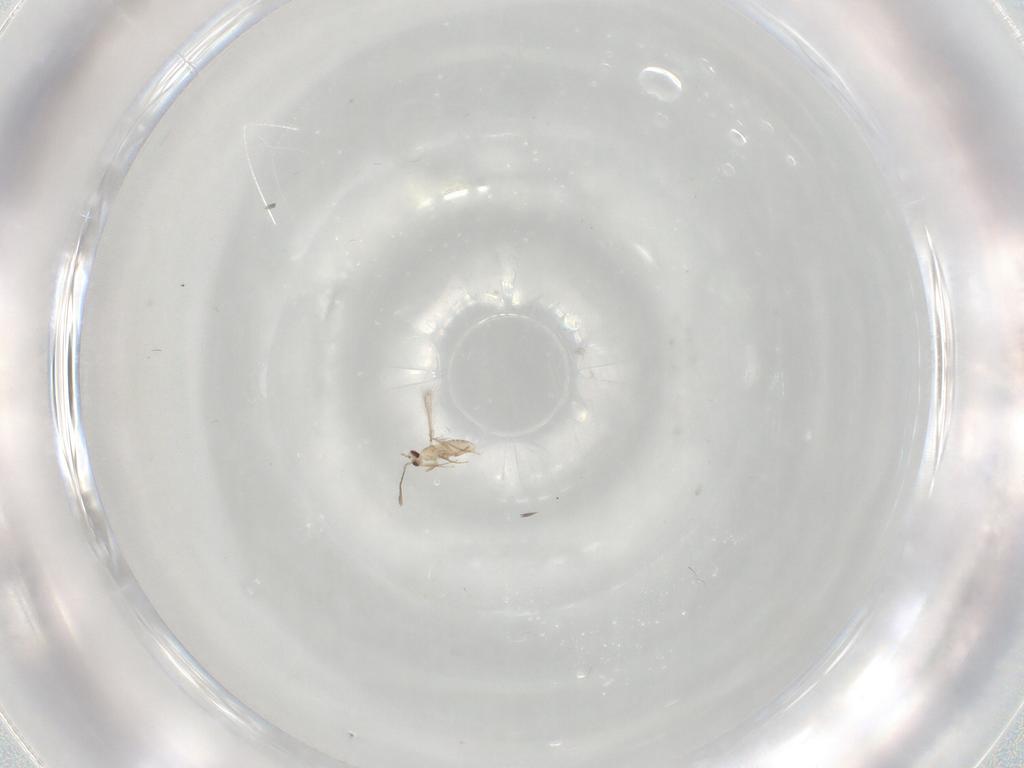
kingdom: Animalia
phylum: Arthropoda
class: Insecta
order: Hymenoptera
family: Mymaridae
